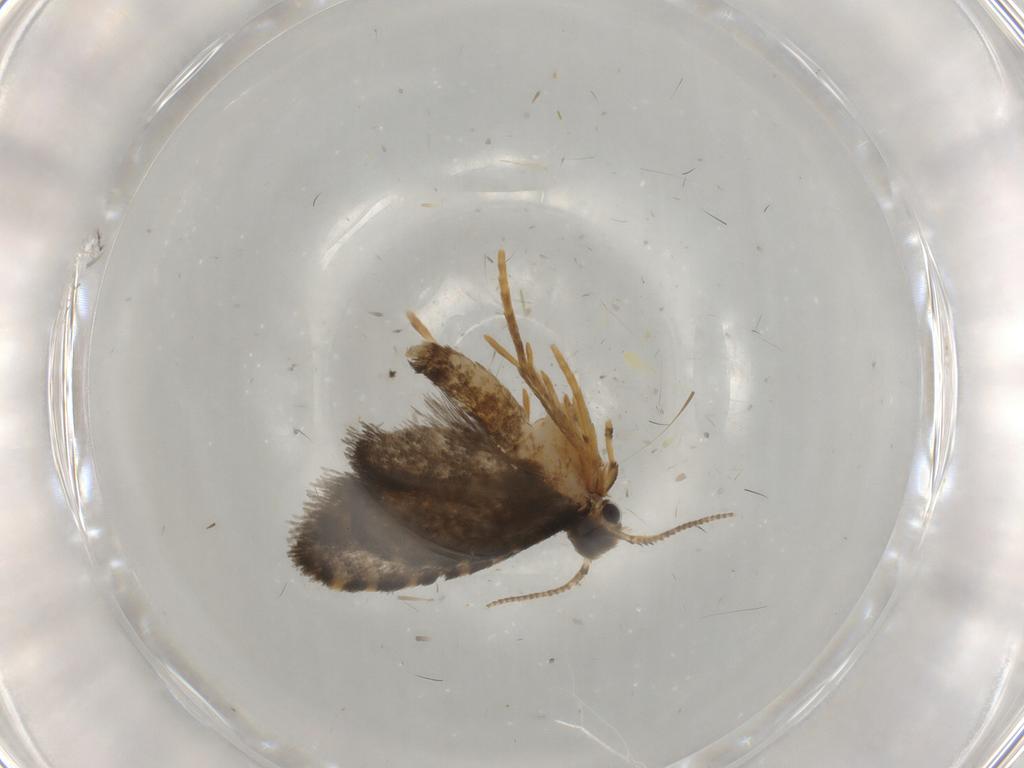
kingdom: Animalia
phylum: Arthropoda
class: Insecta
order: Lepidoptera
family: Psychidae
